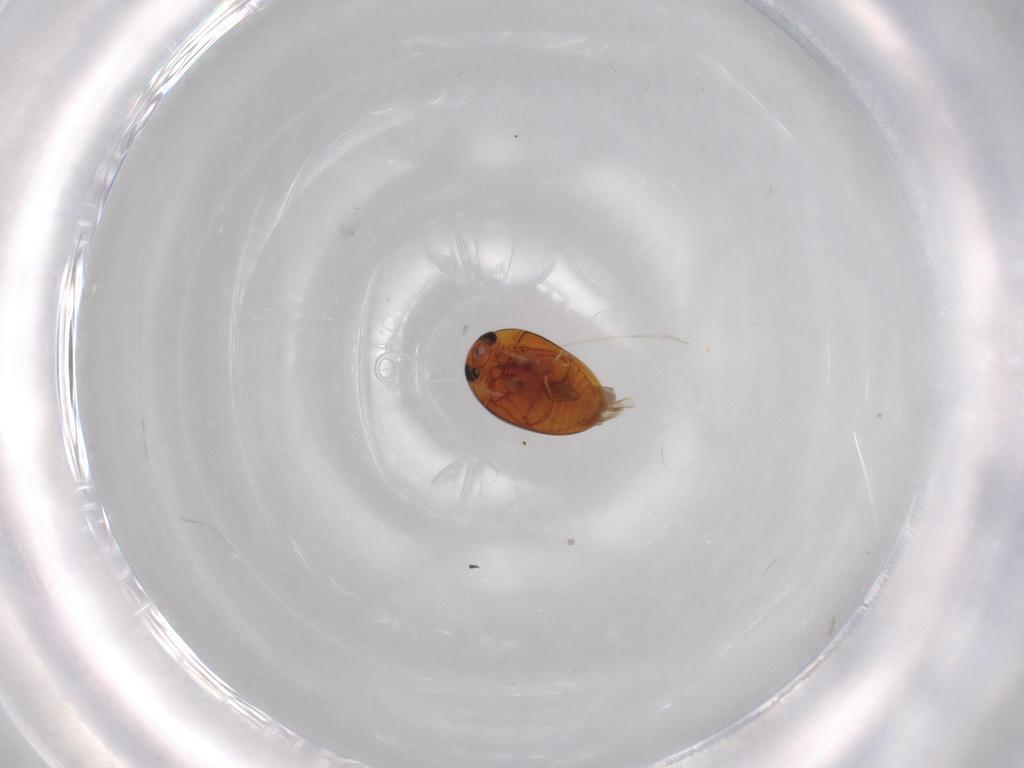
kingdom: Animalia
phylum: Arthropoda
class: Insecta
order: Coleoptera
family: Phalacridae
